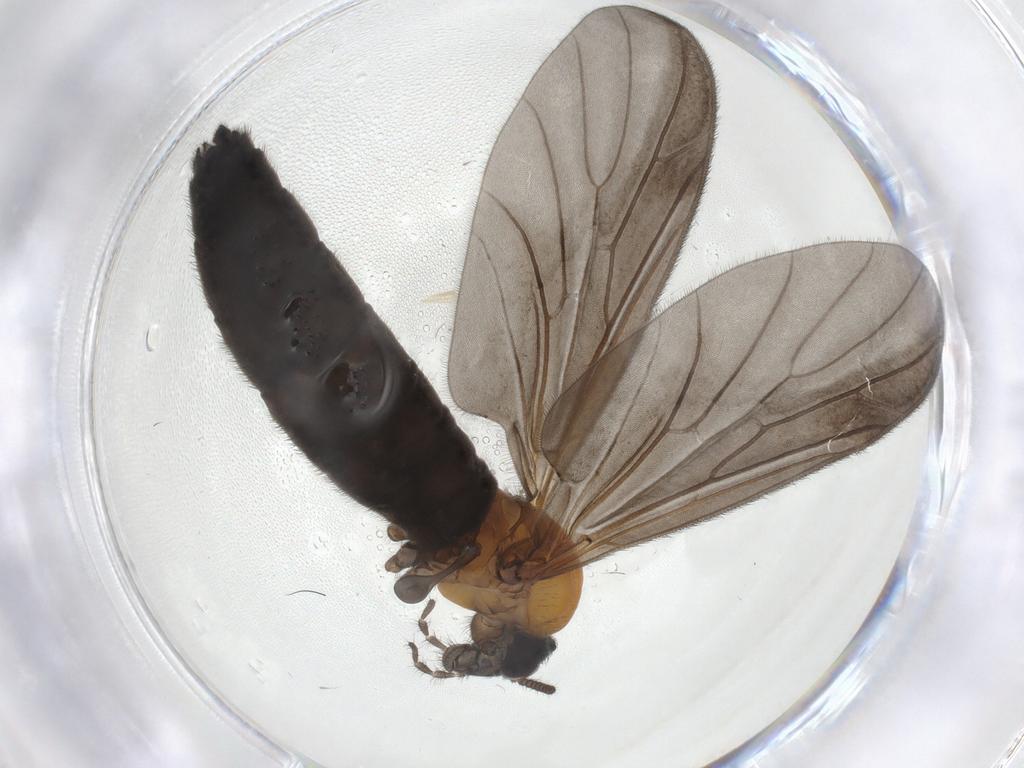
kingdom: Animalia
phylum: Arthropoda
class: Insecta
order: Diptera
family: Bibionidae
